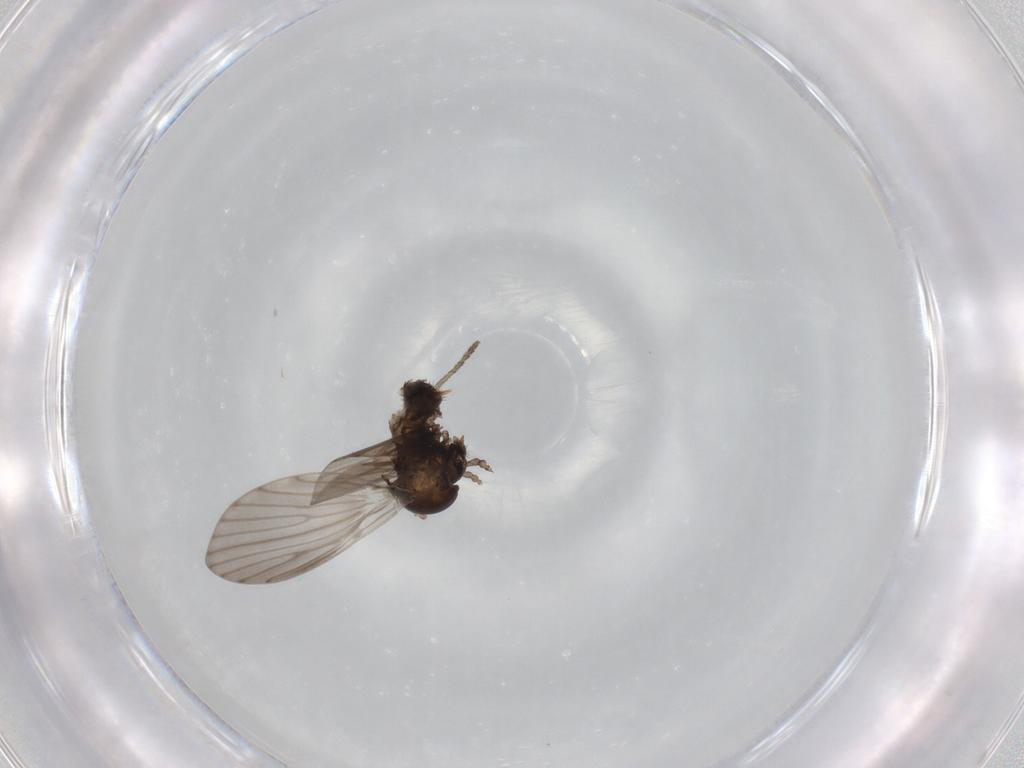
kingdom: Animalia
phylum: Arthropoda
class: Insecta
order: Diptera
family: Psychodidae
